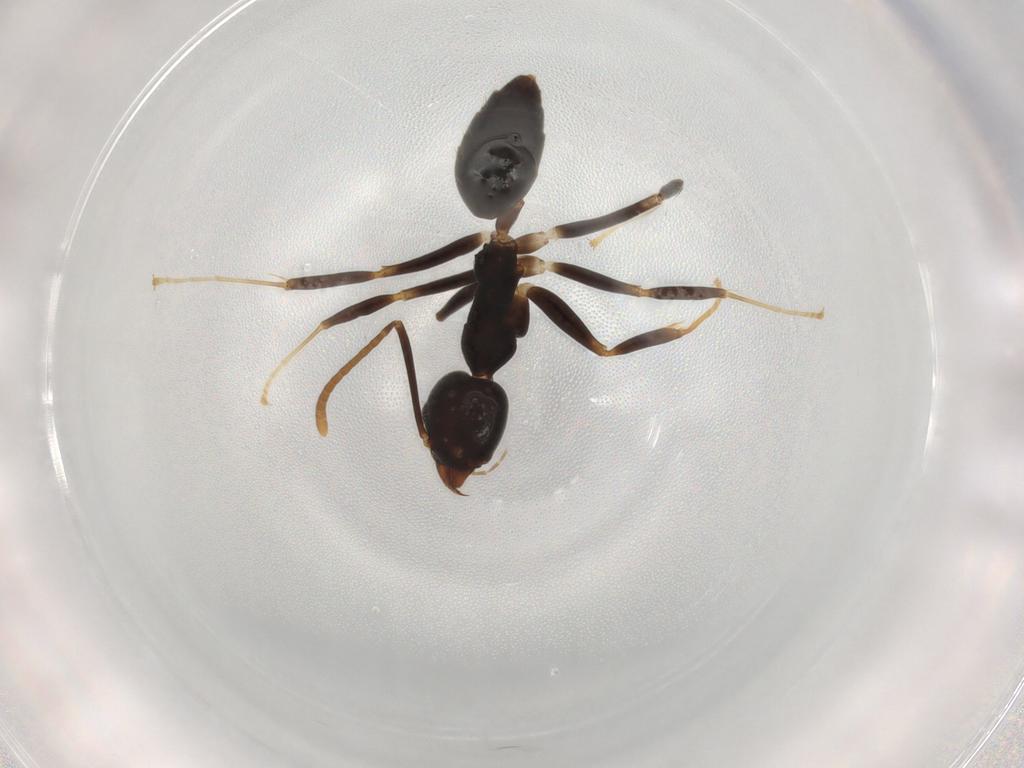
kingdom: Animalia
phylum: Arthropoda
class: Insecta
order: Hymenoptera
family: Formicidae
